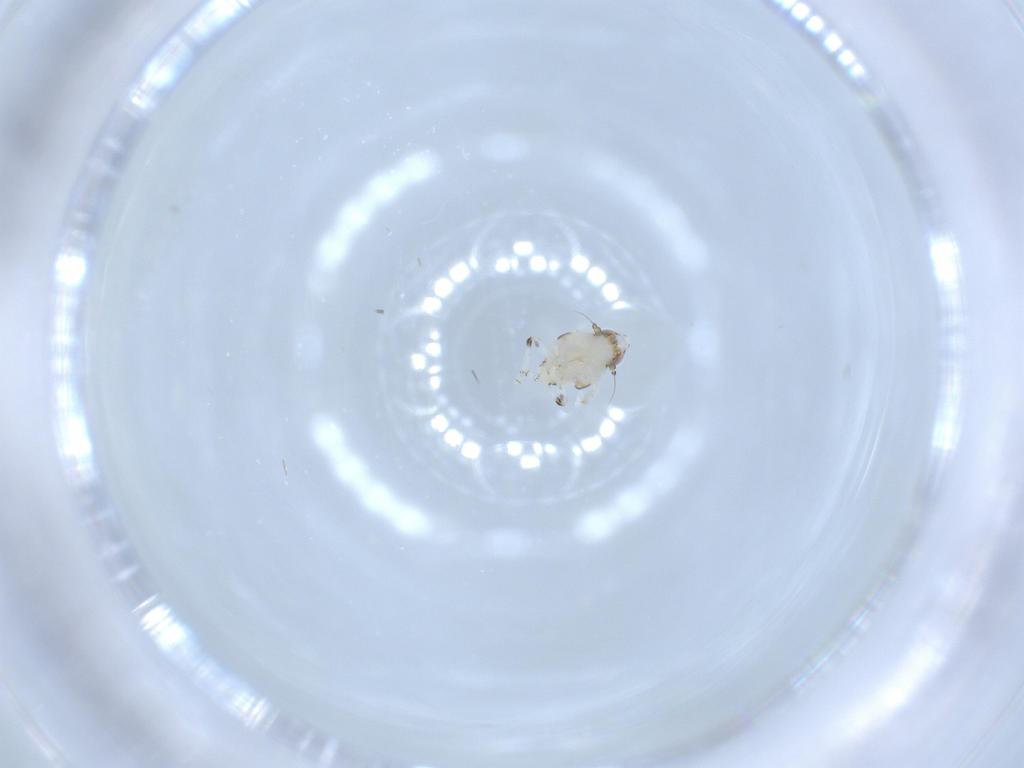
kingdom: Animalia
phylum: Arthropoda
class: Insecta
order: Hemiptera
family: Nogodinidae
